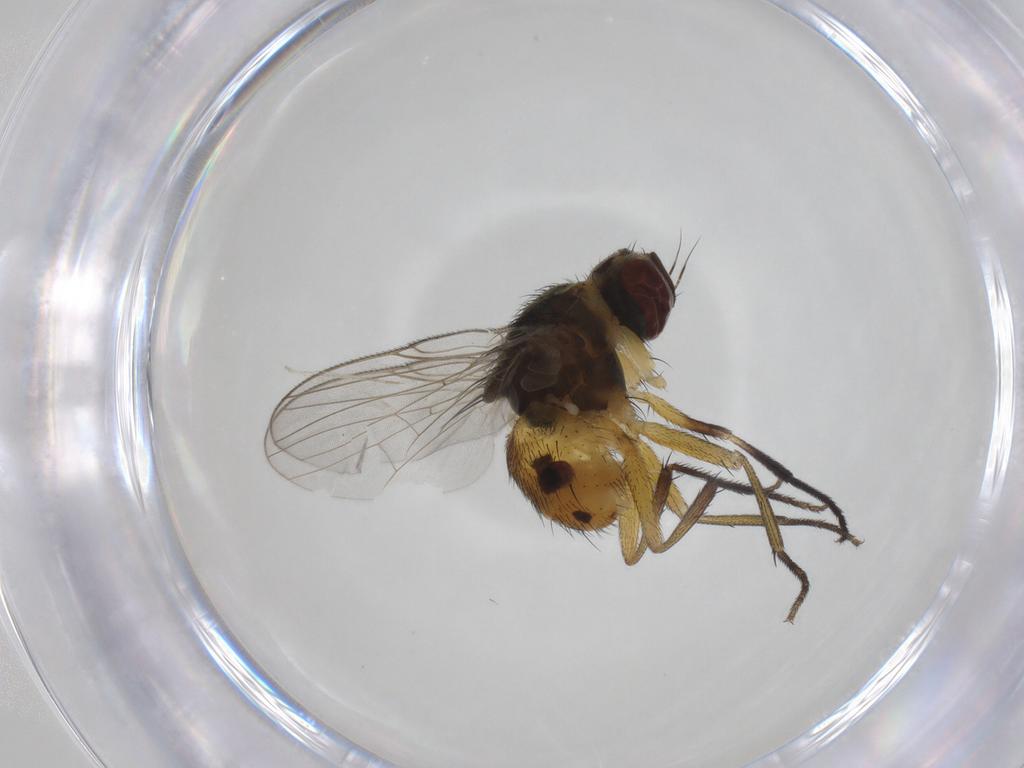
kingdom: Animalia
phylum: Arthropoda
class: Insecta
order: Diptera
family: Muscidae
